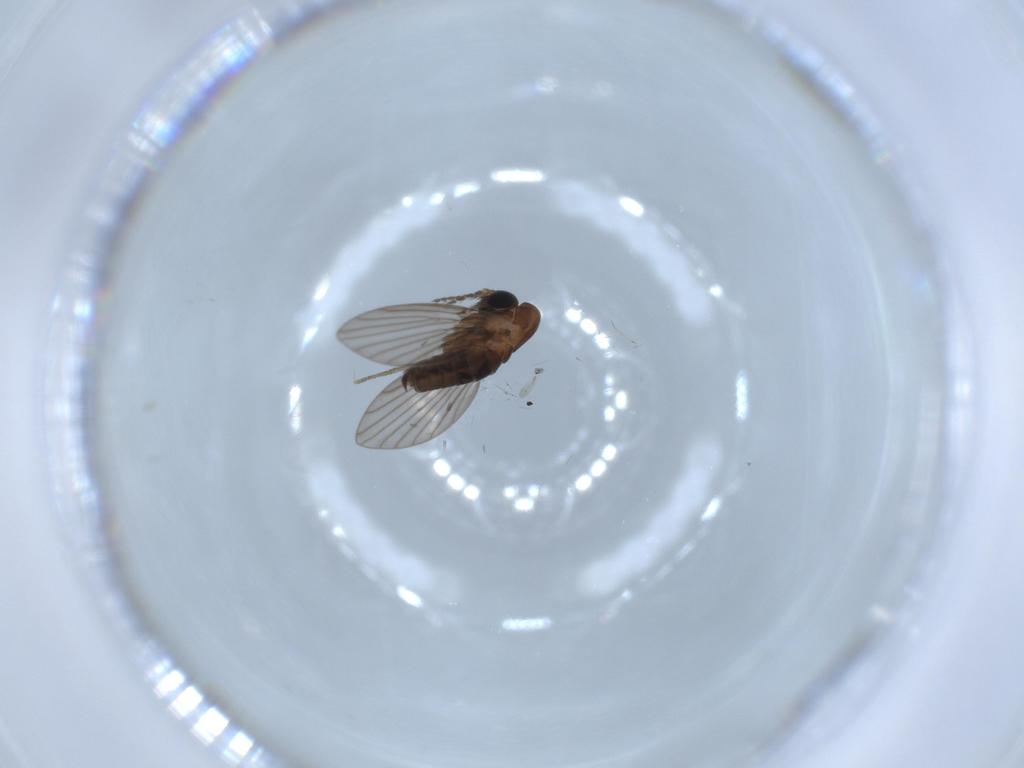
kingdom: Animalia
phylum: Arthropoda
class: Insecta
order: Diptera
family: Psychodidae
